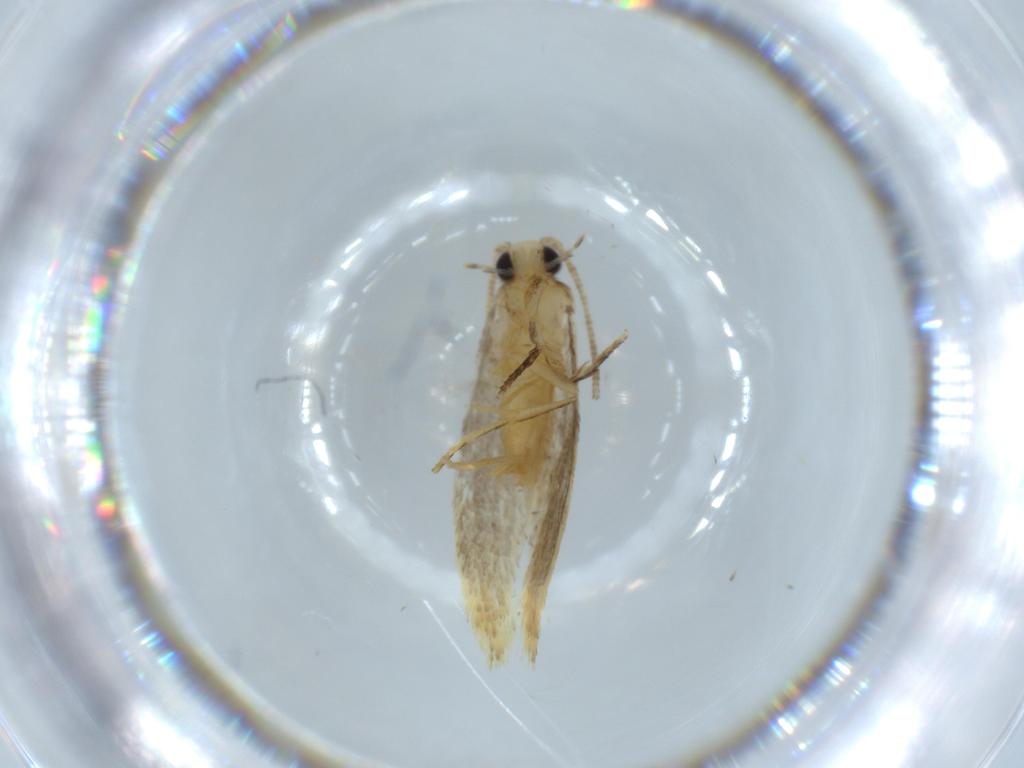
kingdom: Animalia
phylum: Arthropoda
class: Insecta
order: Lepidoptera
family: Tineidae
